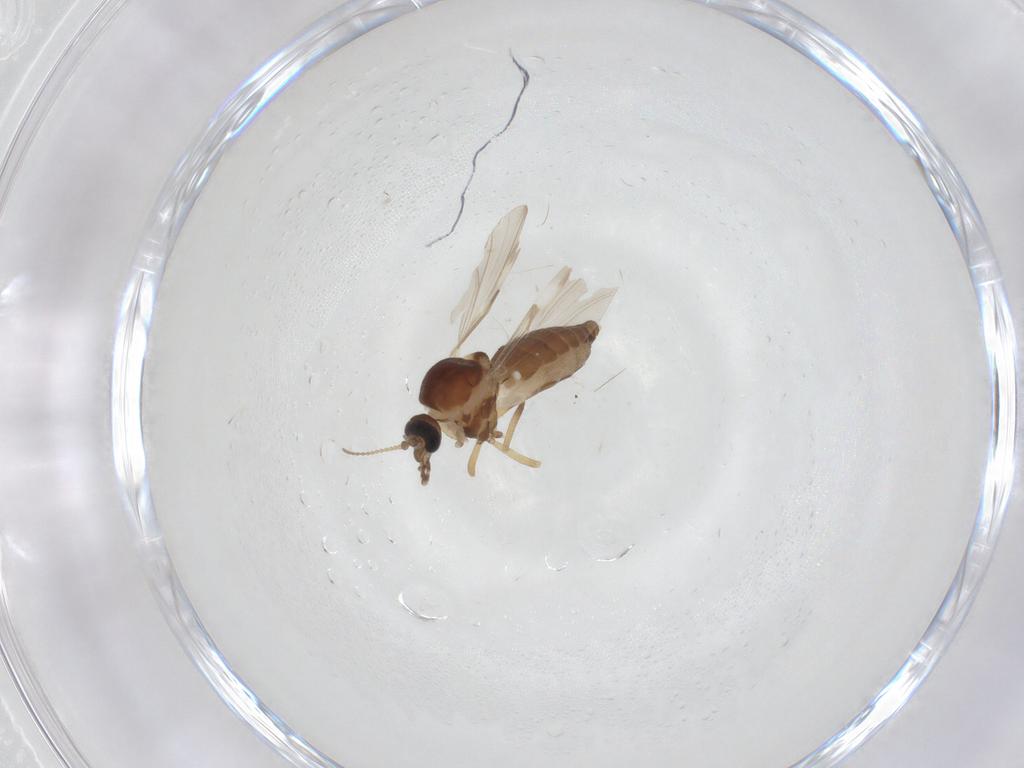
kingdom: Animalia
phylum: Arthropoda
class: Insecta
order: Diptera
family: Ceratopogonidae
